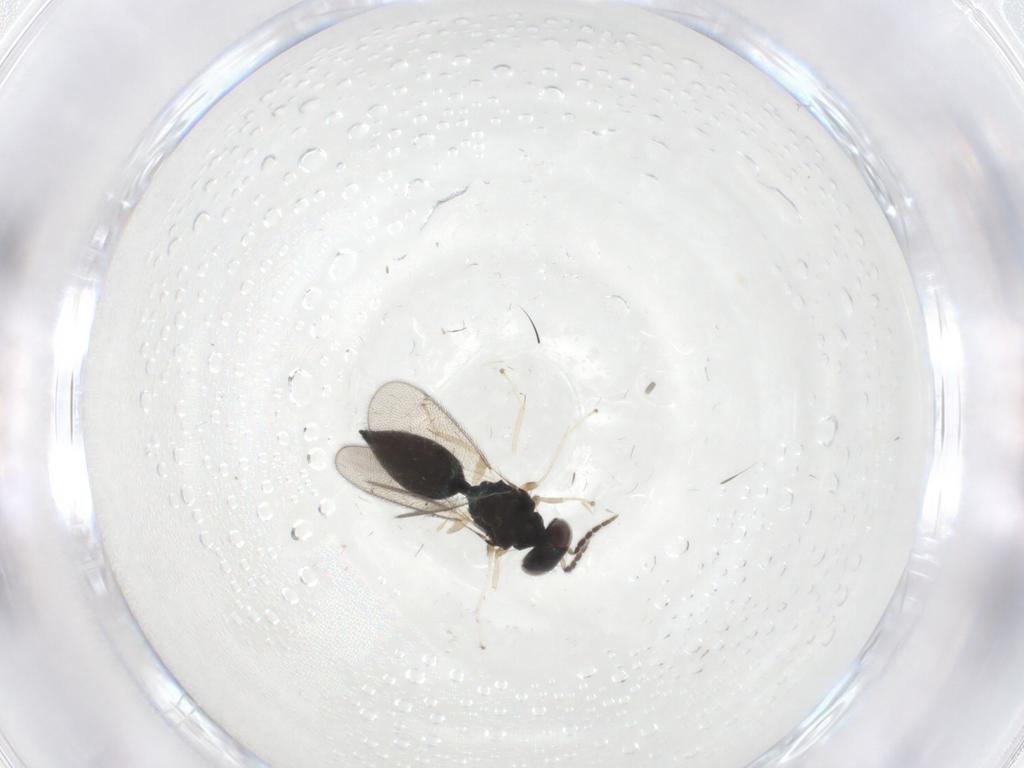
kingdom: Animalia
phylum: Arthropoda
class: Insecta
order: Hymenoptera
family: Eulophidae
